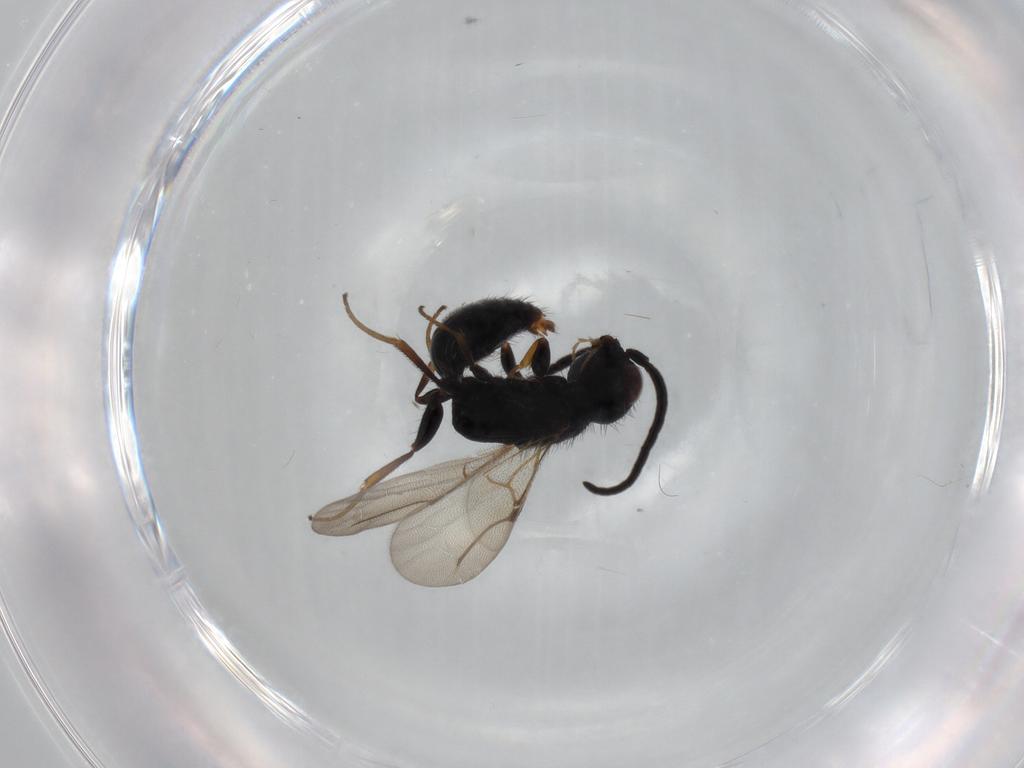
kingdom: Animalia
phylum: Arthropoda
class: Insecta
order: Hymenoptera
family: Bethylidae
